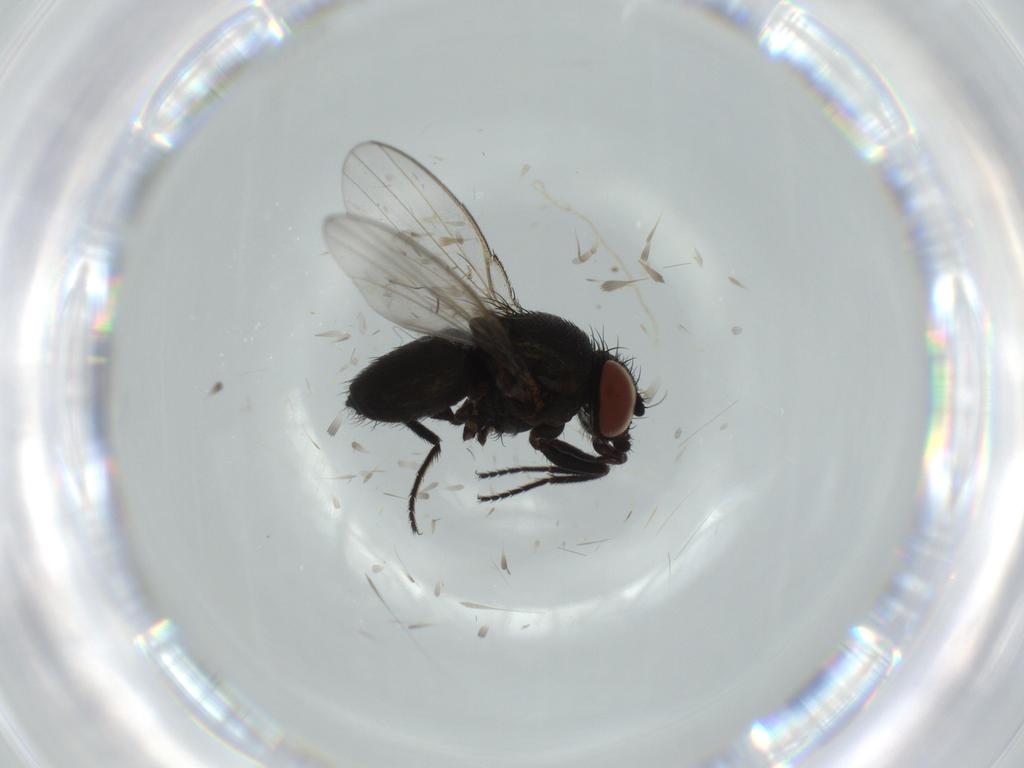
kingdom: Animalia
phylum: Arthropoda
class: Insecta
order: Diptera
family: Milichiidae
